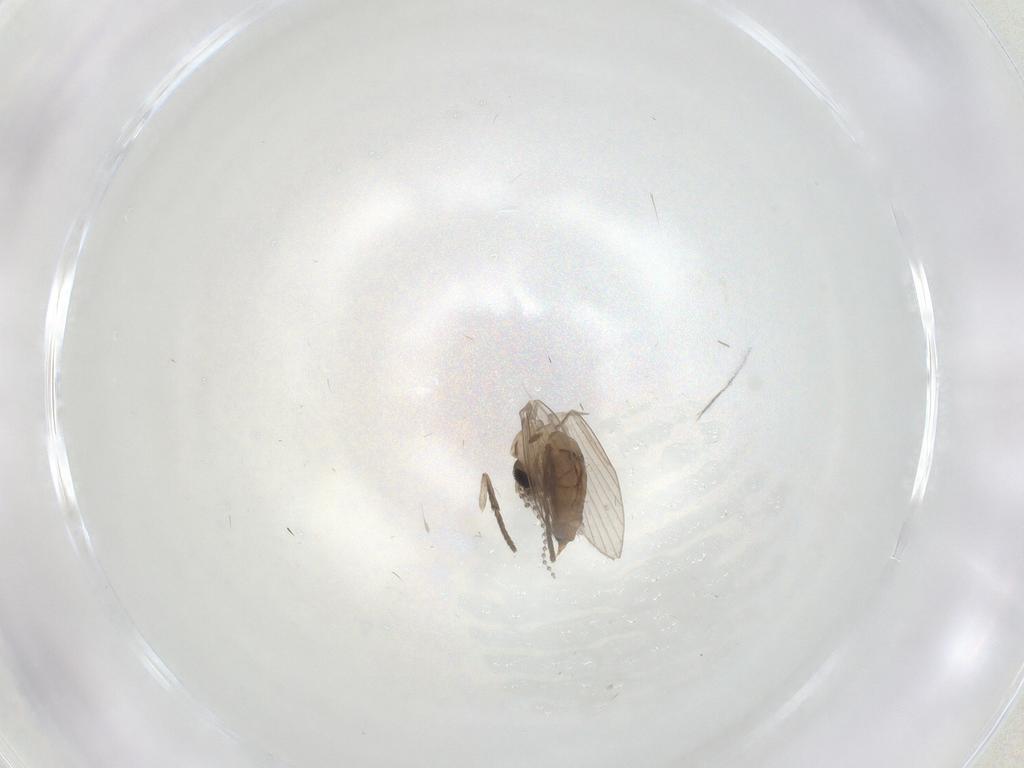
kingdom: Animalia
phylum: Arthropoda
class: Insecta
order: Diptera
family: Psychodidae
